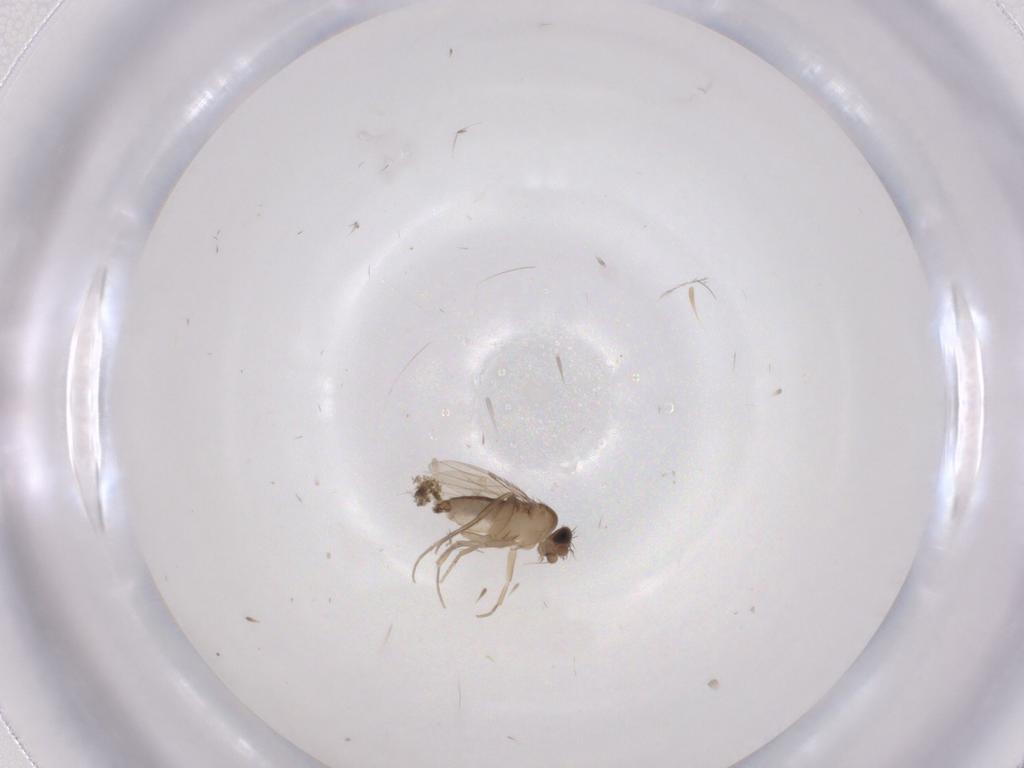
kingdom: Animalia
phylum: Arthropoda
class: Insecta
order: Diptera
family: Phoridae
